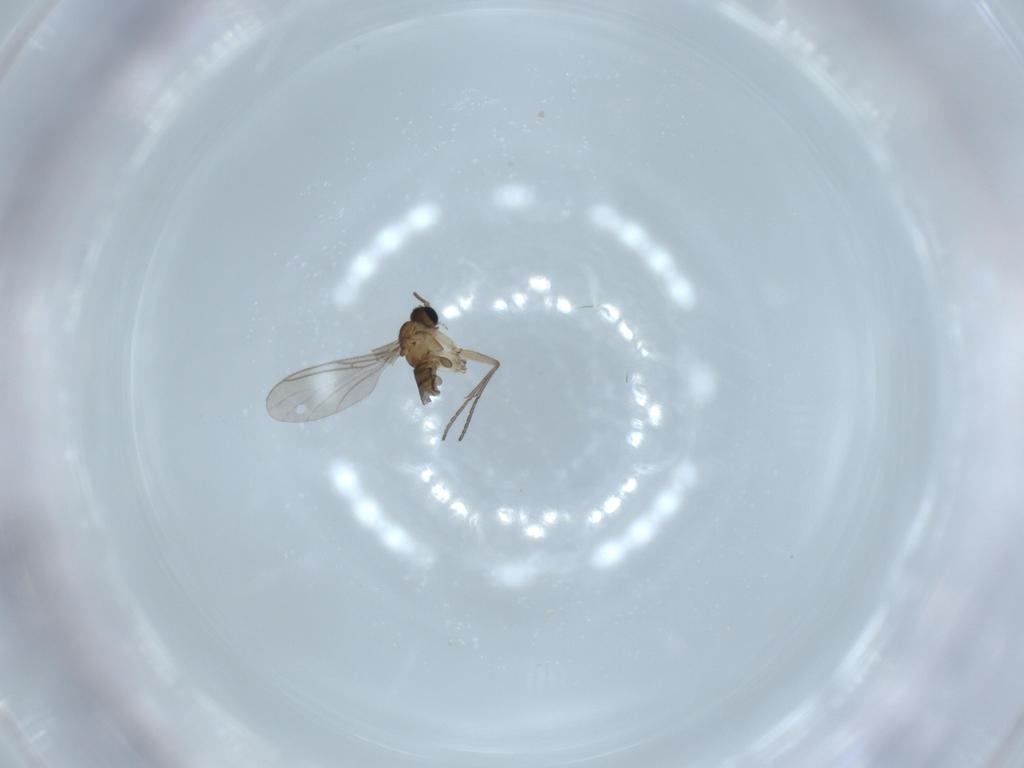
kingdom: Animalia
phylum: Arthropoda
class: Insecta
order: Diptera
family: Sciaridae
